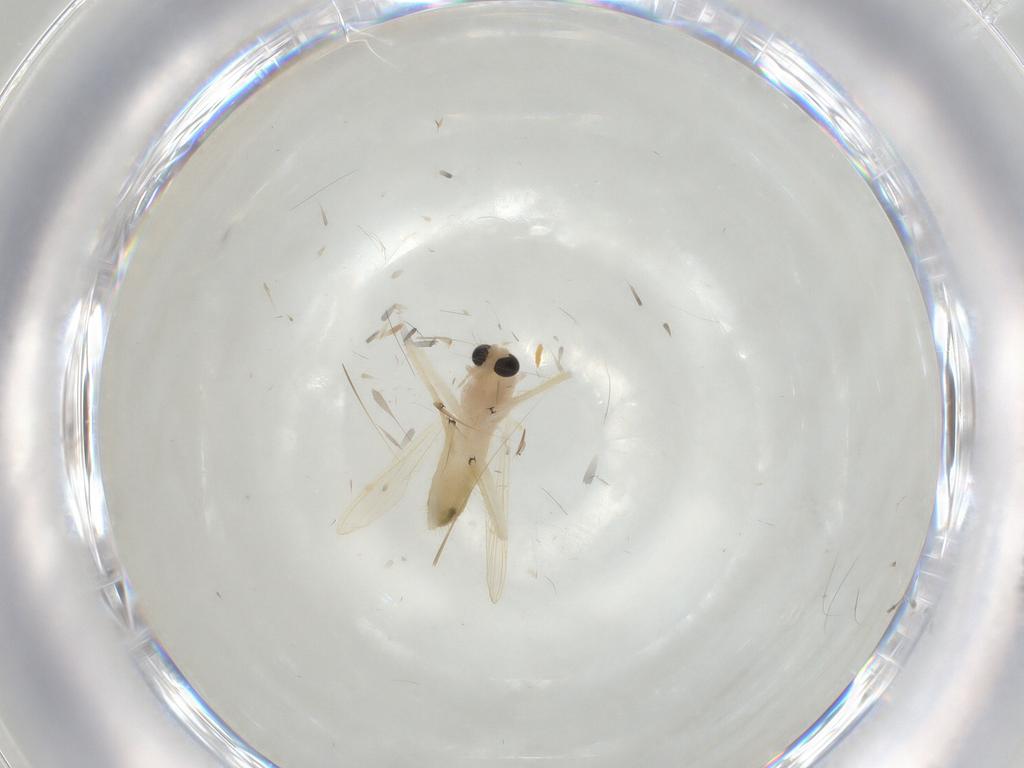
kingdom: Animalia
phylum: Arthropoda
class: Insecta
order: Diptera
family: Chironomidae
